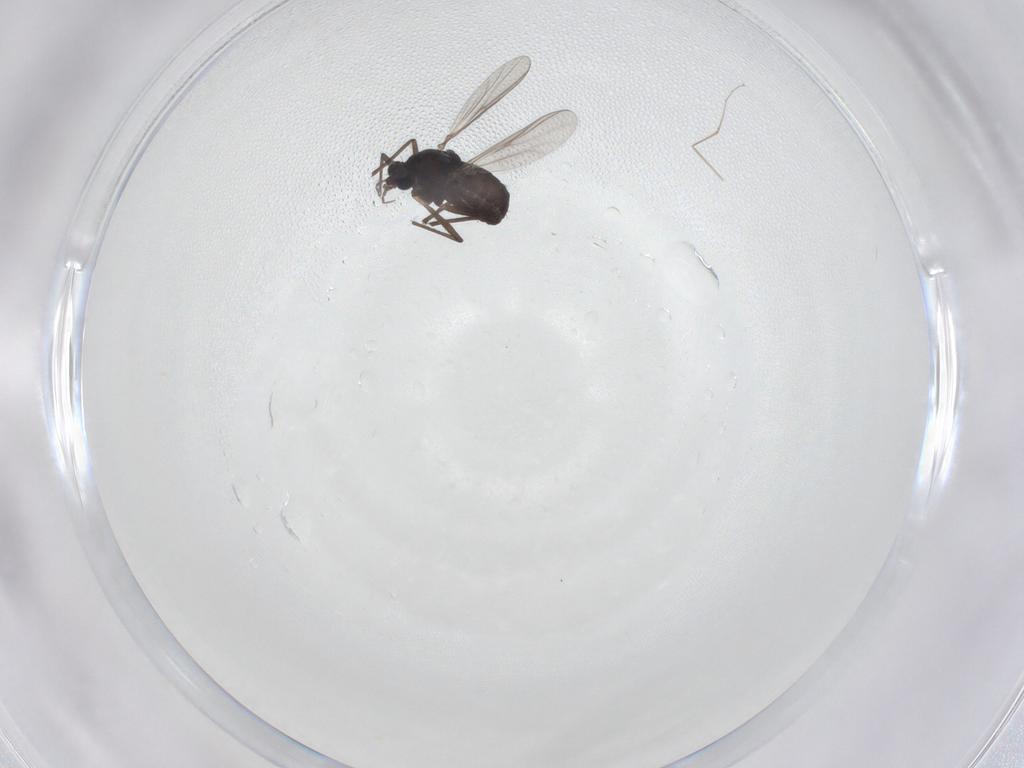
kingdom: Animalia
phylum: Arthropoda
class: Insecta
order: Diptera
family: Chironomidae
